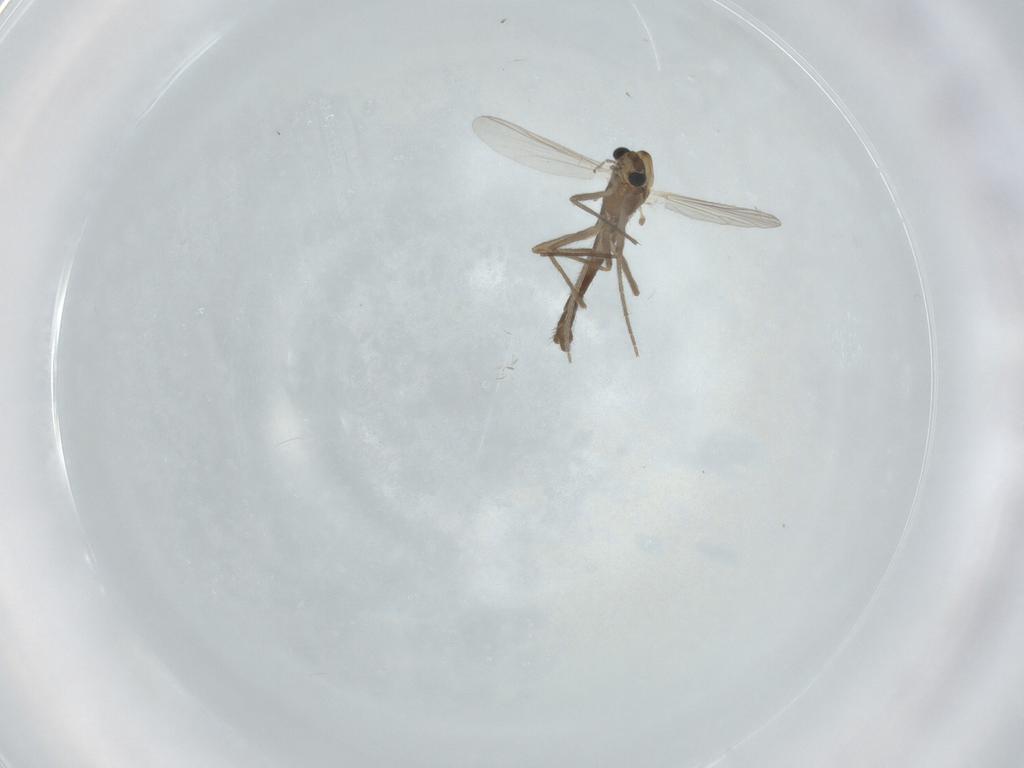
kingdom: Animalia
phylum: Arthropoda
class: Insecta
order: Diptera
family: Chironomidae
